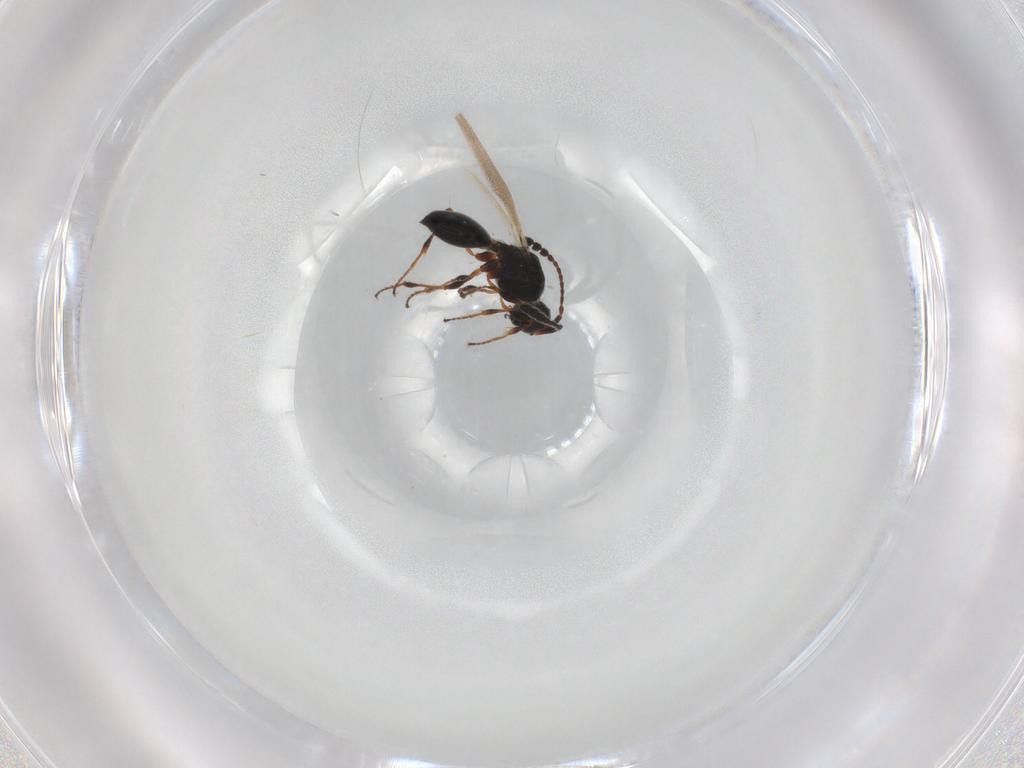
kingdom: Animalia
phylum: Arthropoda
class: Insecta
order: Hymenoptera
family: Diapriidae
